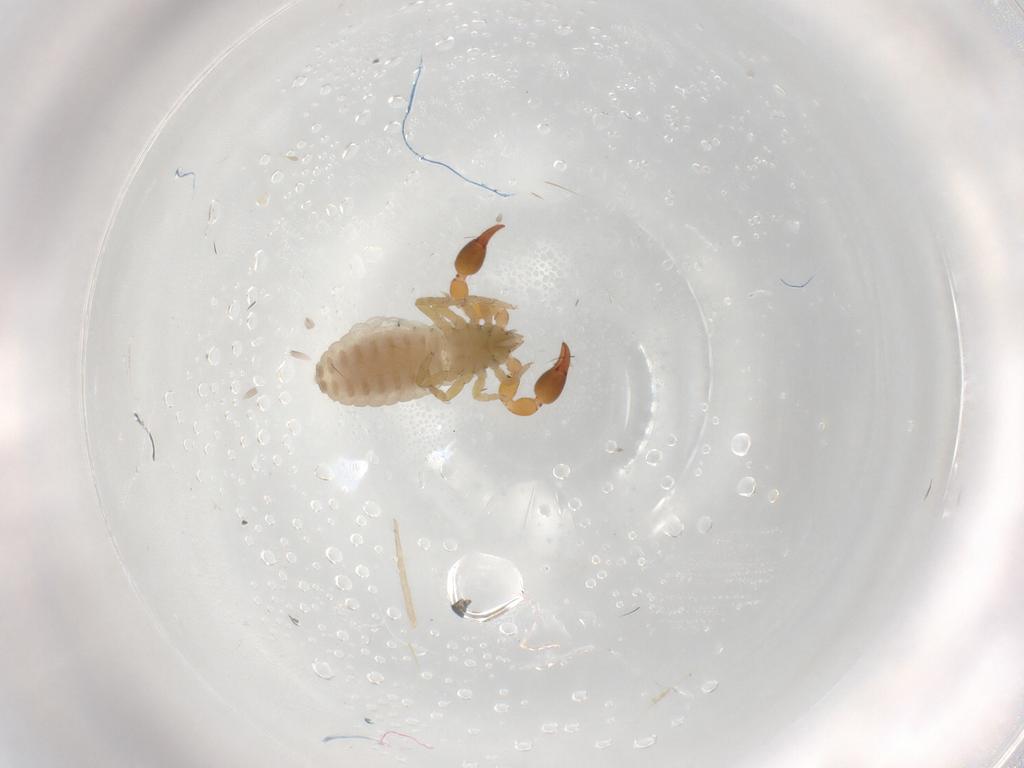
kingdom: Animalia
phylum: Arthropoda
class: Arachnida
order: Pseudoscorpiones
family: Chernetidae
